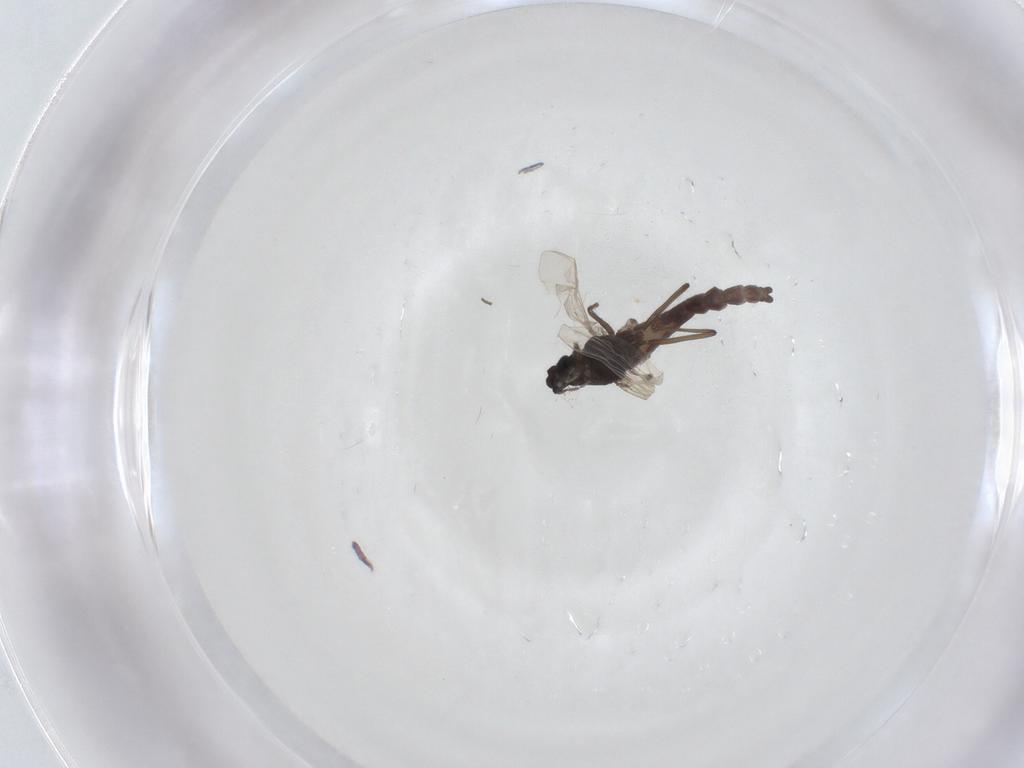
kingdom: Animalia
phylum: Arthropoda
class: Insecta
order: Diptera
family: Chironomidae
